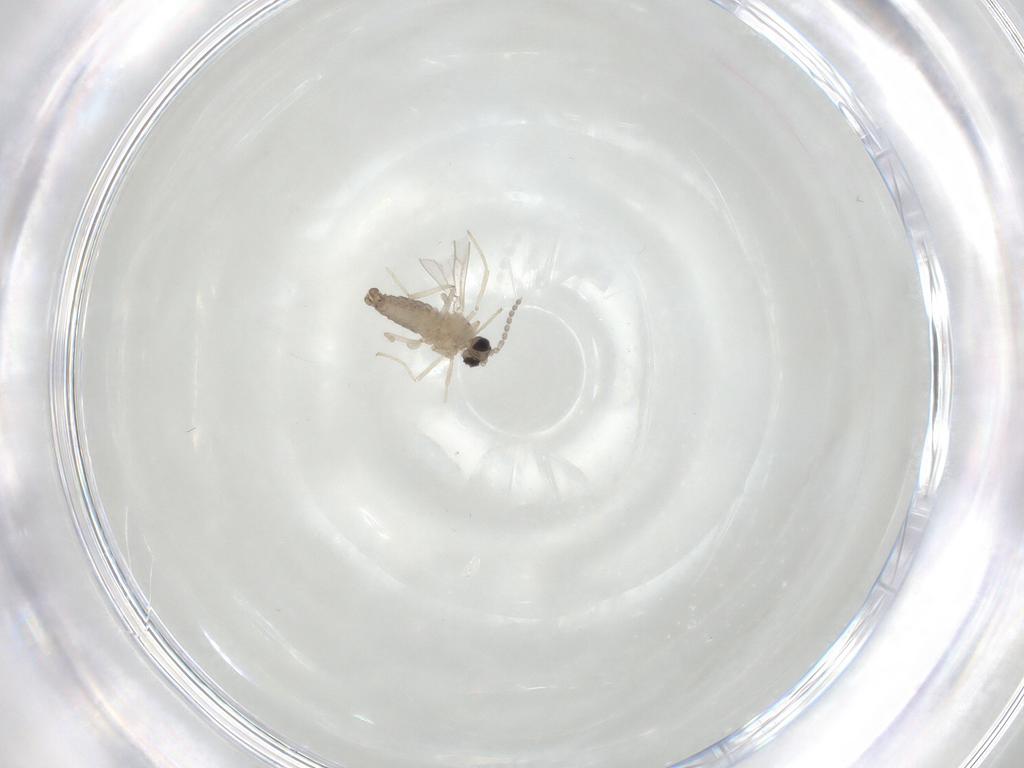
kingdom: Animalia
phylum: Arthropoda
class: Insecta
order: Diptera
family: Cecidomyiidae
